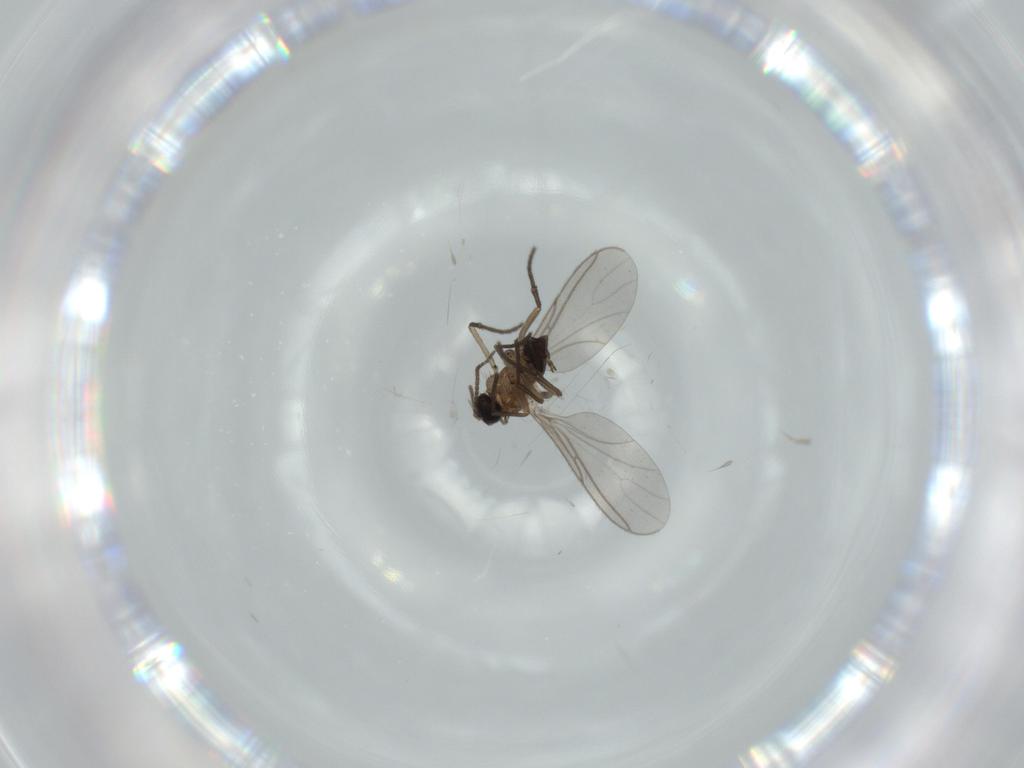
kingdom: Animalia
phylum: Arthropoda
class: Insecta
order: Diptera
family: Sciaridae
